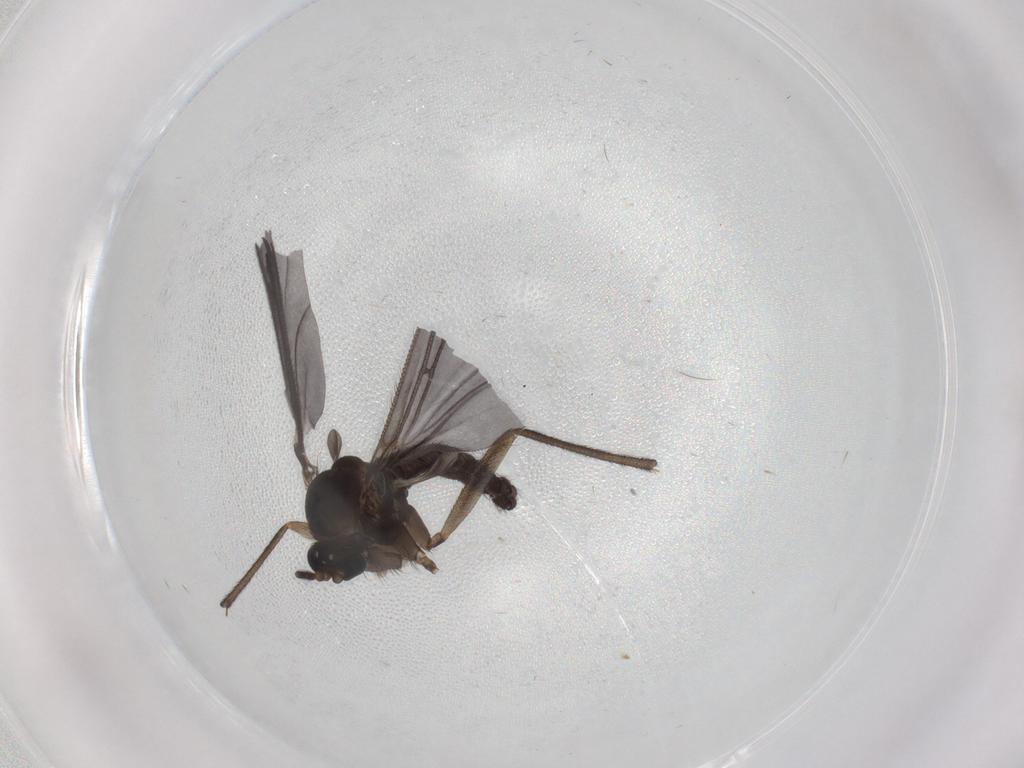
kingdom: Animalia
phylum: Arthropoda
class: Insecta
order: Diptera
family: Sciaridae
